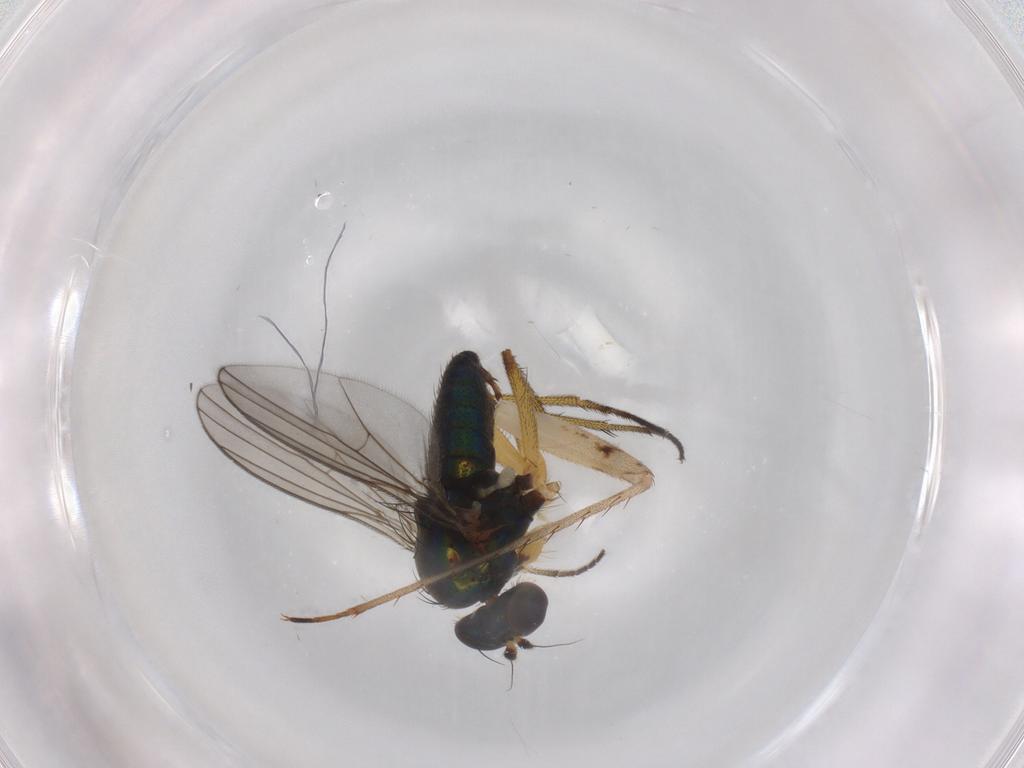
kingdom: Animalia
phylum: Arthropoda
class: Insecta
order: Diptera
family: Dolichopodidae
